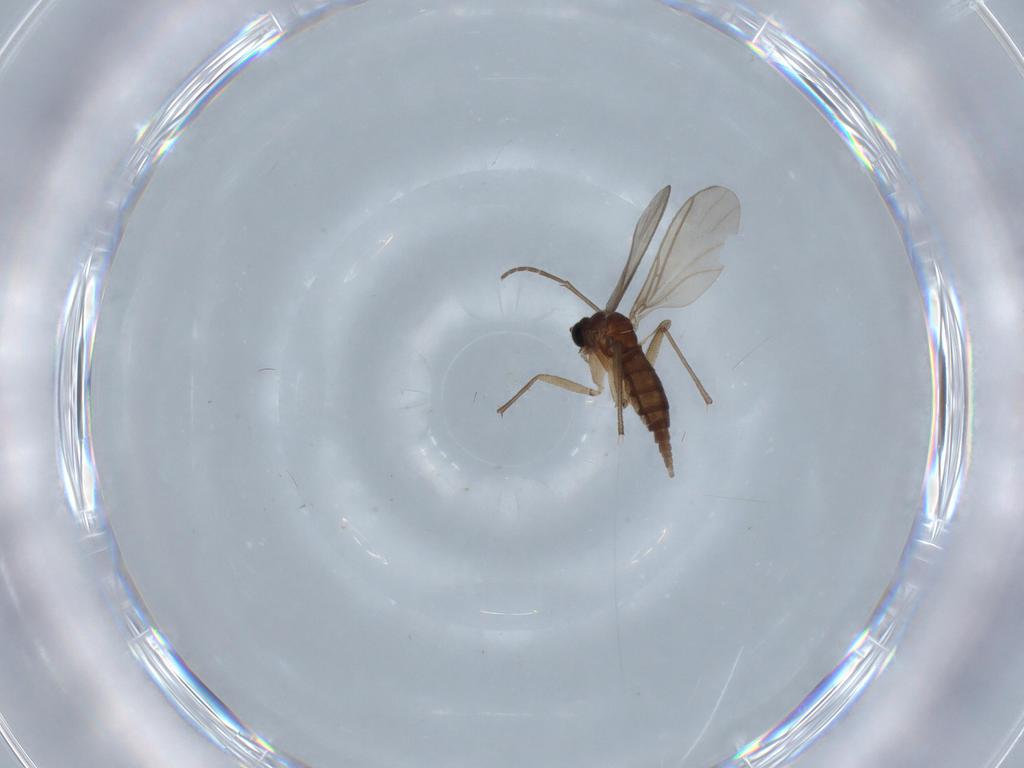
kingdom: Animalia
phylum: Arthropoda
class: Insecta
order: Diptera
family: Sciaridae
